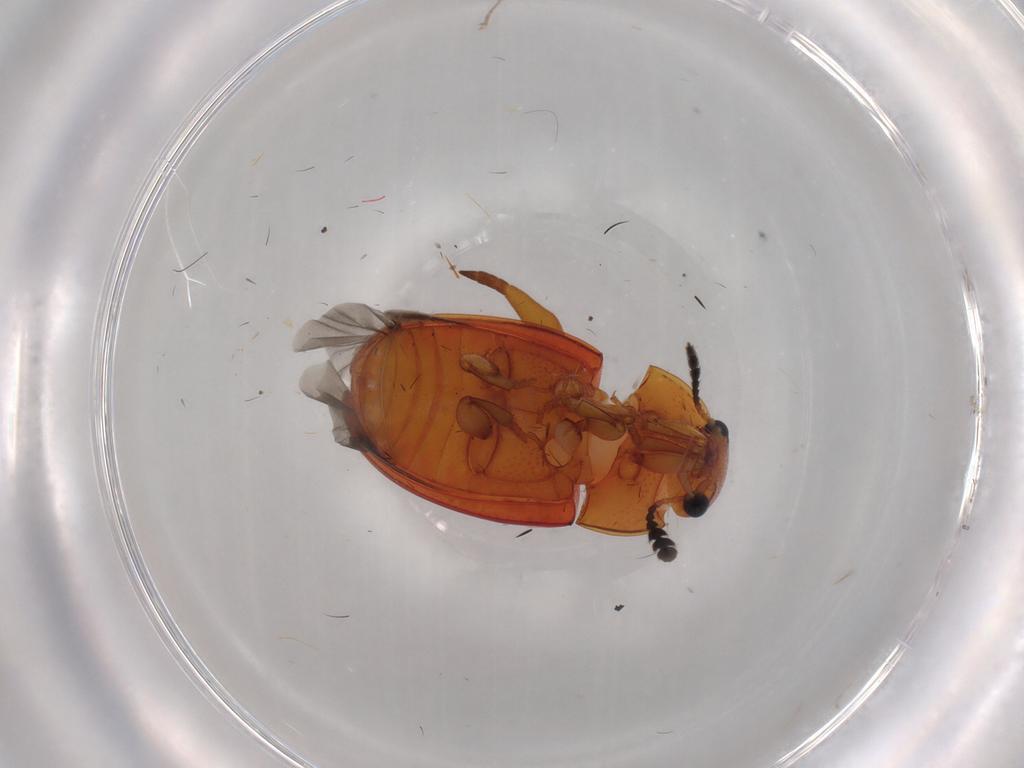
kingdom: Animalia
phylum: Arthropoda
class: Insecta
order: Coleoptera
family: Erotylidae
